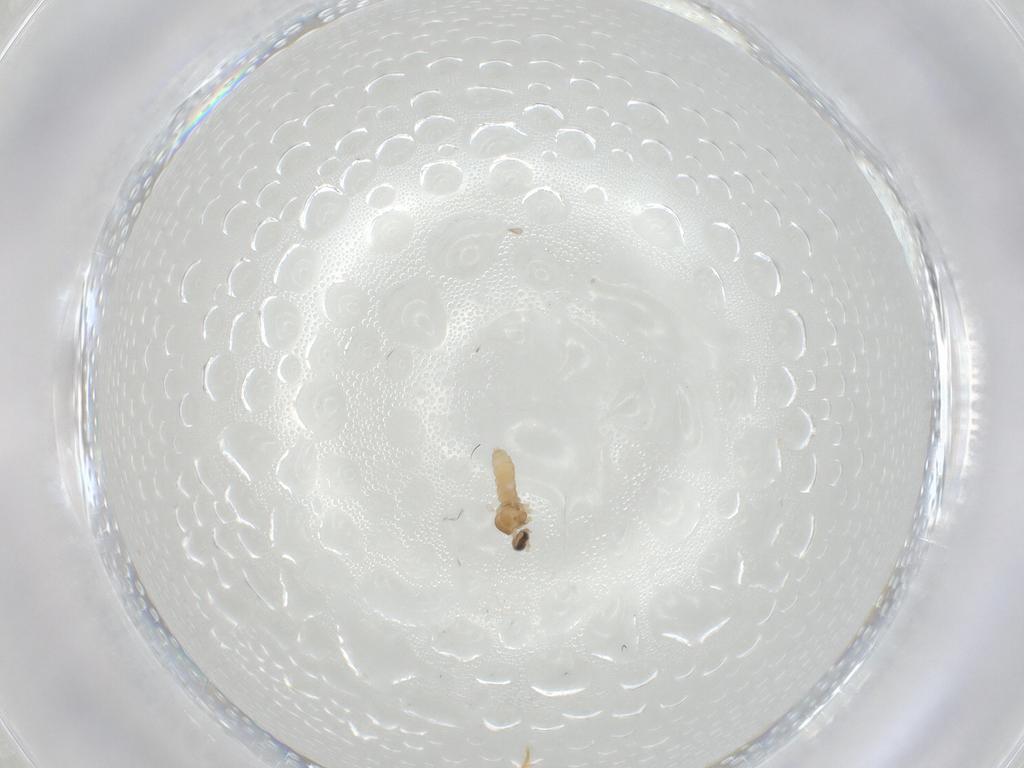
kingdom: Animalia
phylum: Arthropoda
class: Insecta
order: Diptera
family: Cecidomyiidae
